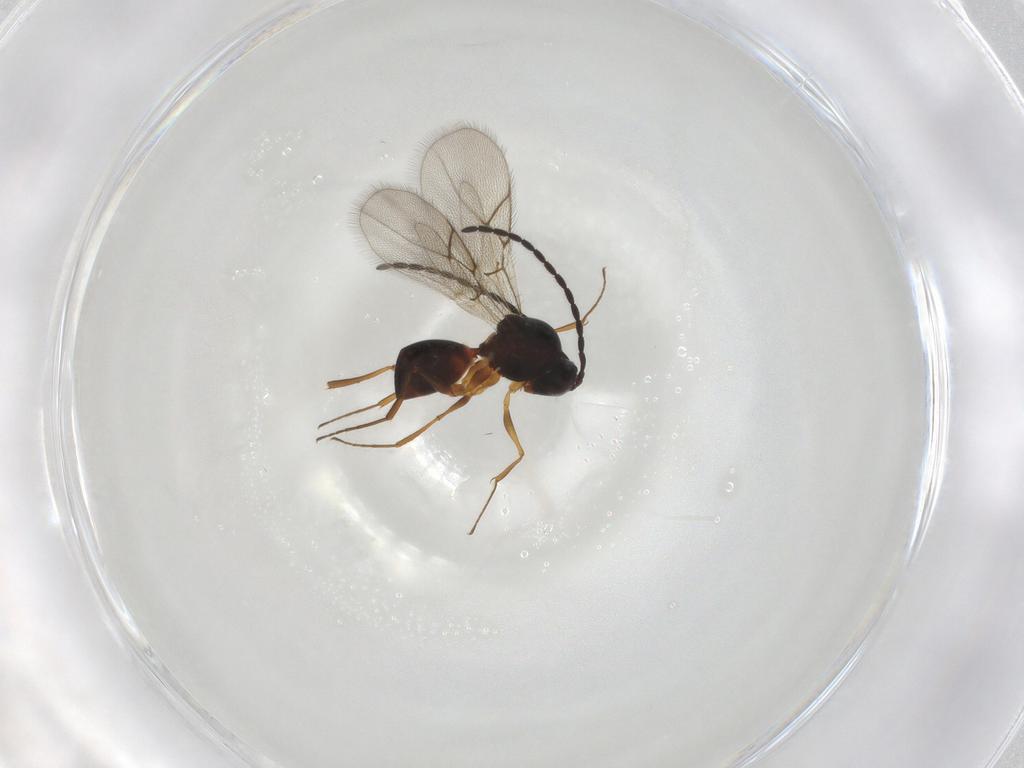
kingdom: Animalia
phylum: Arthropoda
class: Insecta
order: Hymenoptera
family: Figitidae
